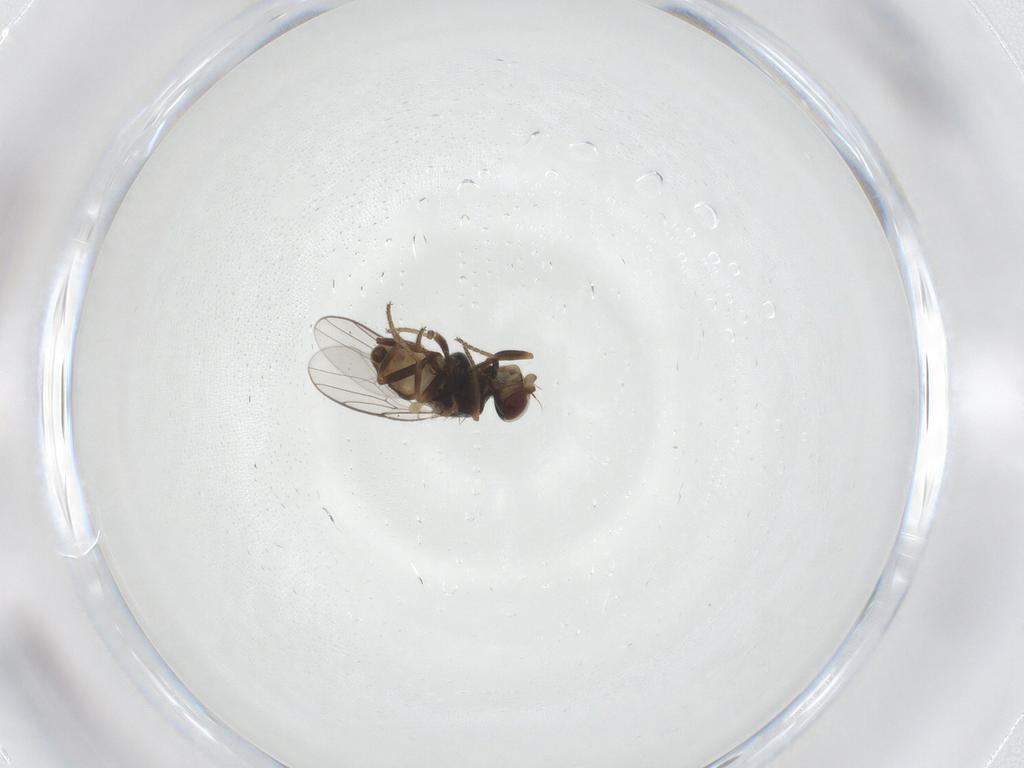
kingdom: Animalia
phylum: Arthropoda
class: Insecta
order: Diptera
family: Chloropidae
